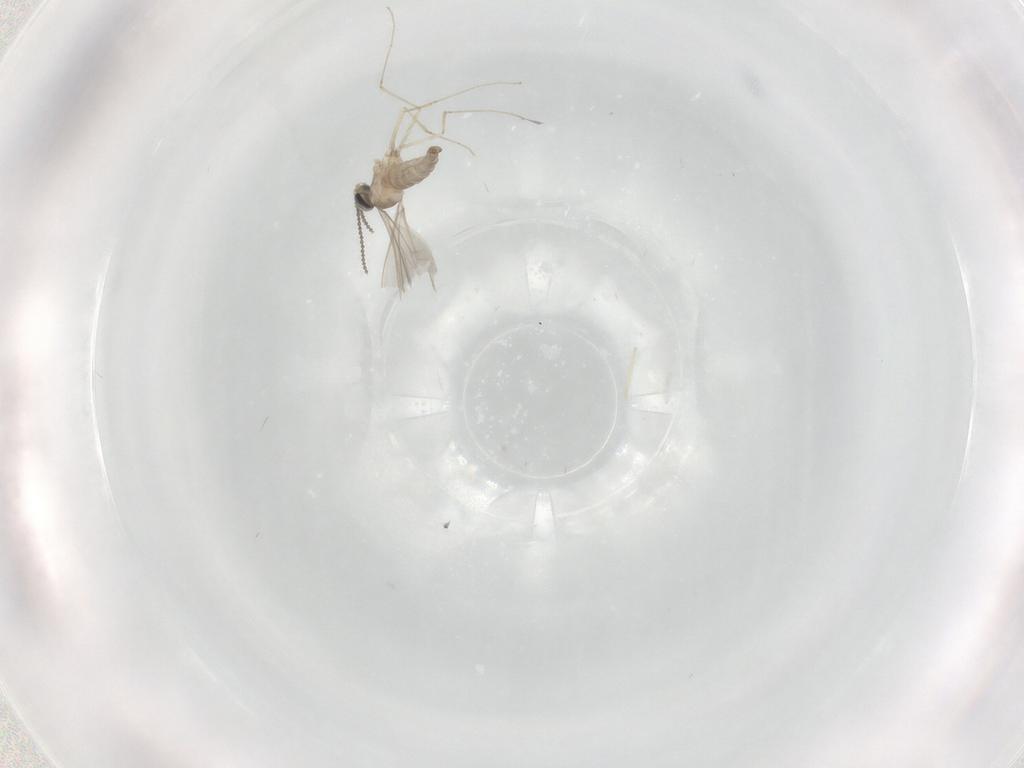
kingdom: Animalia
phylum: Arthropoda
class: Insecta
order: Diptera
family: Cecidomyiidae
